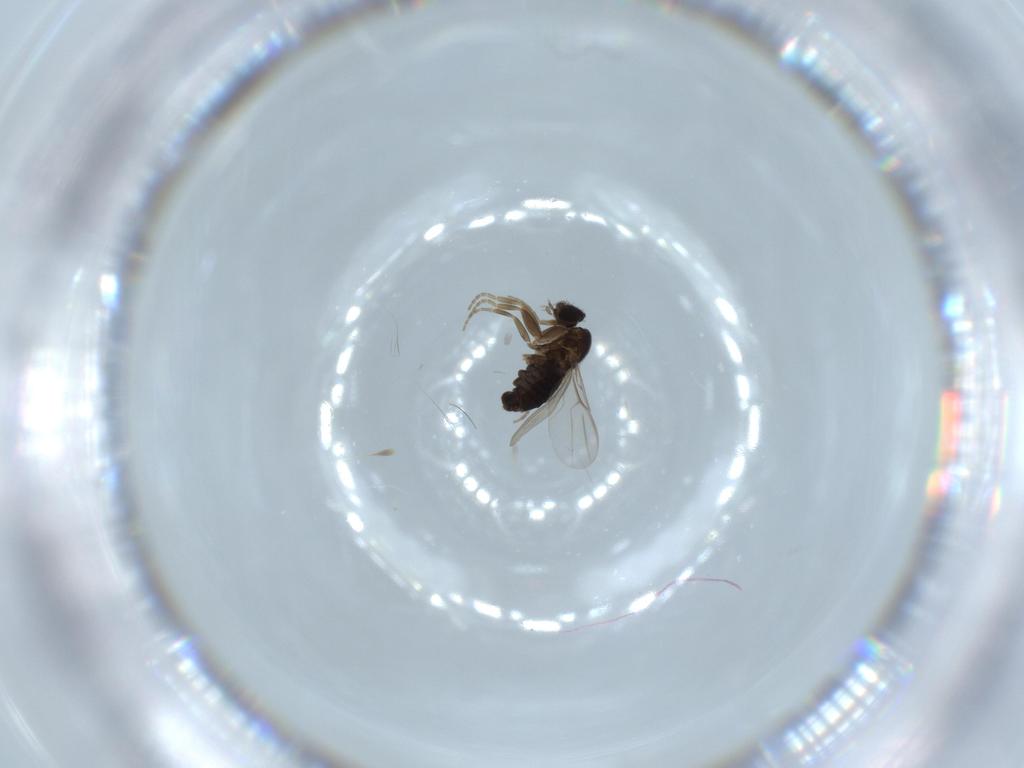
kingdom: Animalia
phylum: Arthropoda
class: Insecta
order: Diptera
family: Phoridae
